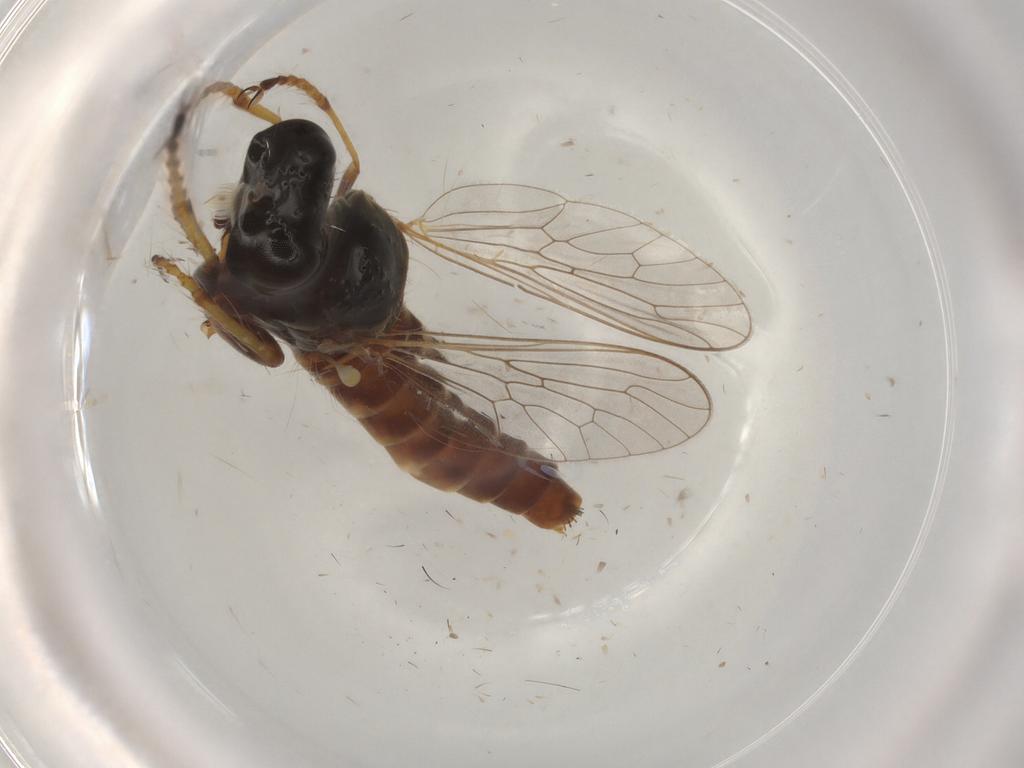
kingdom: Animalia
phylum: Arthropoda
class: Insecta
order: Diptera
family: Asilidae
